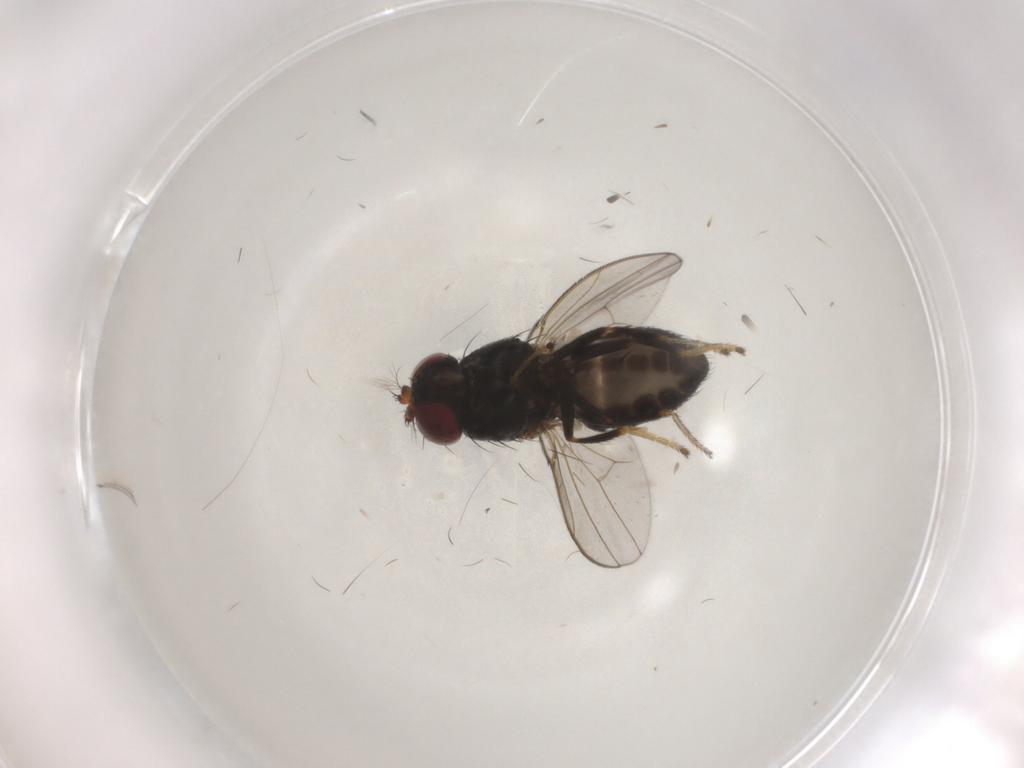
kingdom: Animalia
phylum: Arthropoda
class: Insecta
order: Diptera
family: Ephydridae
